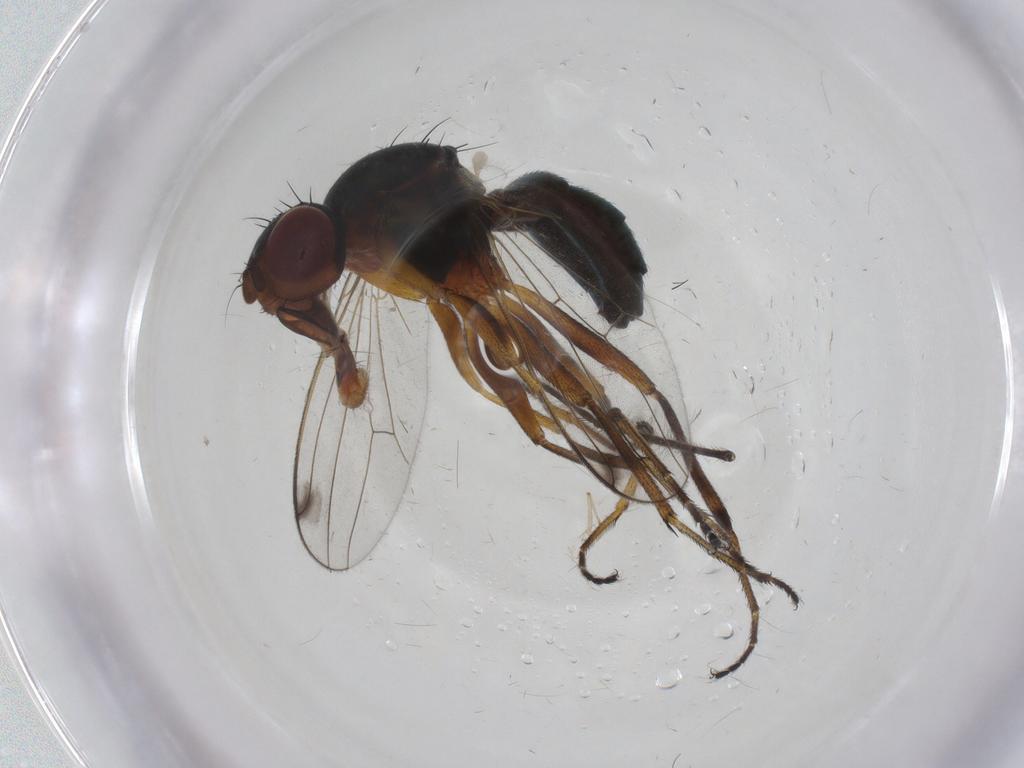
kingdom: Animalia
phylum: Arthropoda
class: Insecta
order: Diptera
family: Sepsidae
